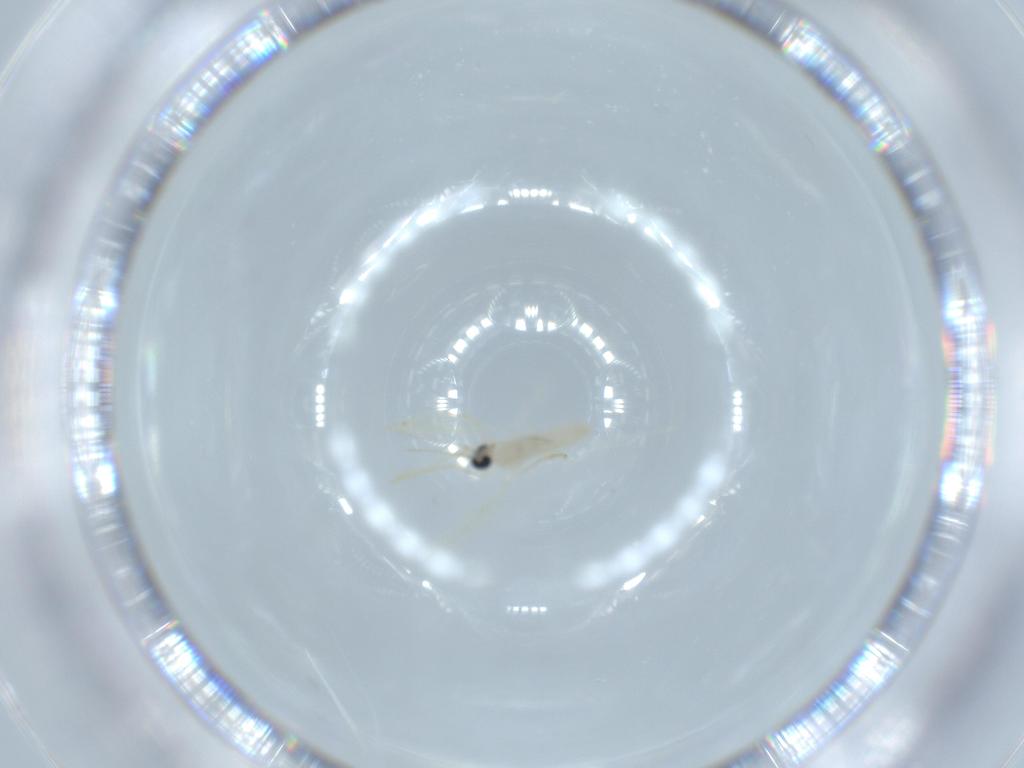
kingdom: Animalia
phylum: Arthropoda
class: Insecta
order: Diptera
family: Cecidomyiidae
